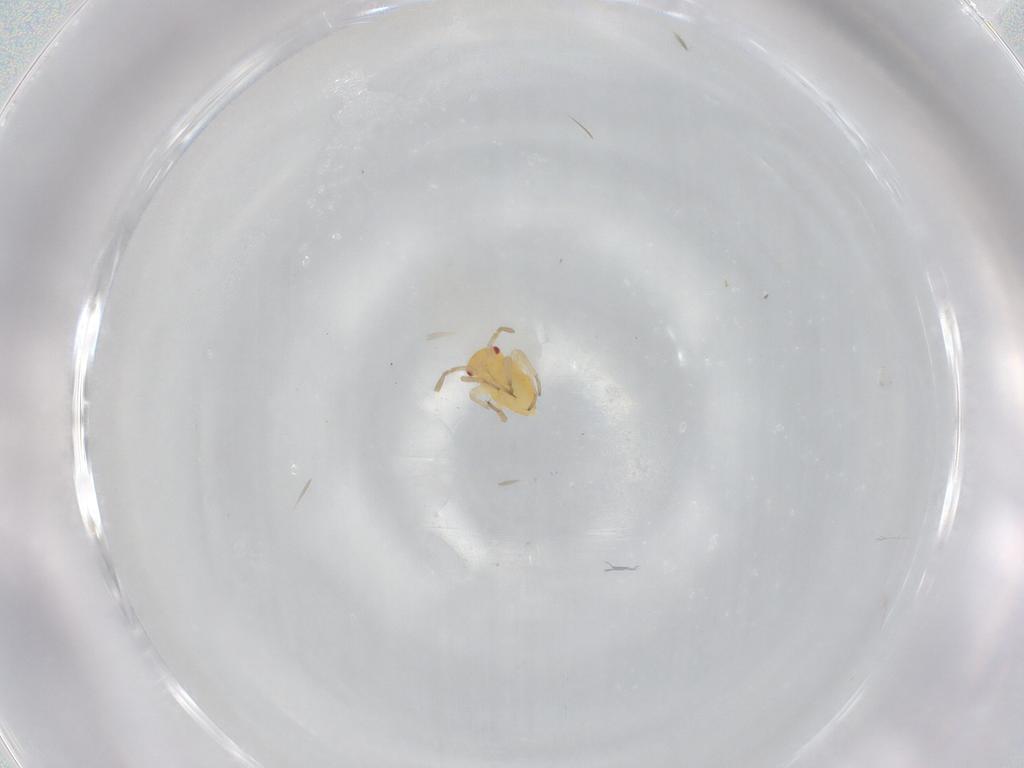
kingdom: Animalia
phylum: Arthropoda
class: Insecta
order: Hemiptera
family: Miridae
